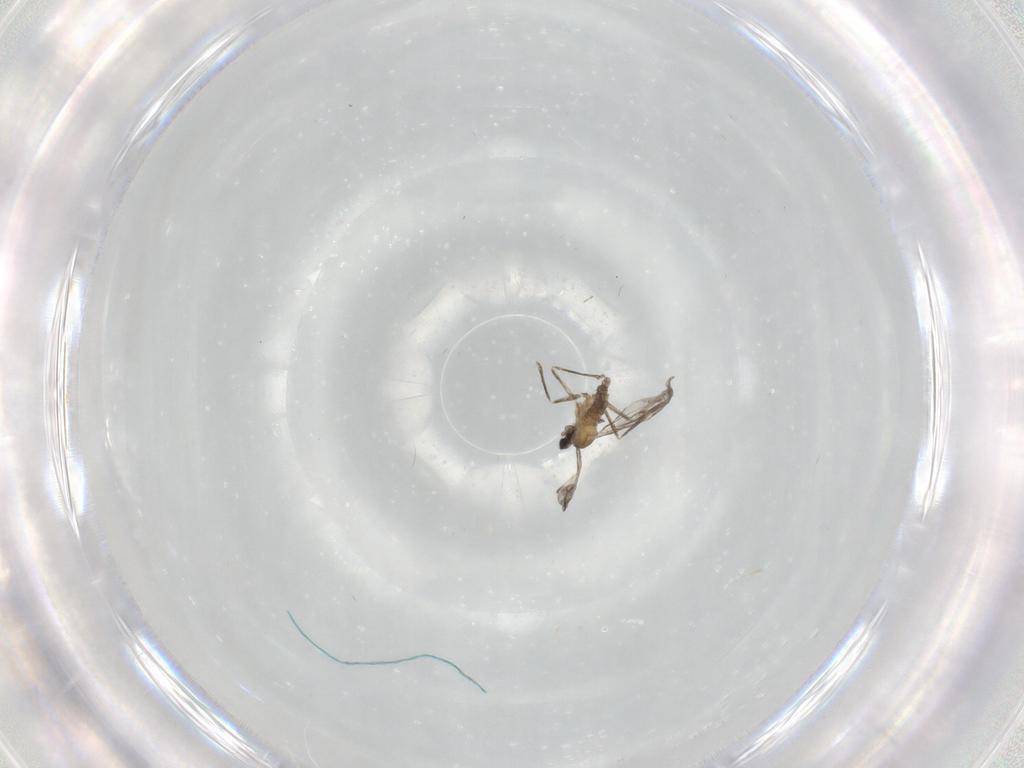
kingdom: Animalia
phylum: Arthropoda
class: Insecta
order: Diptera
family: Cecidomyiidae
